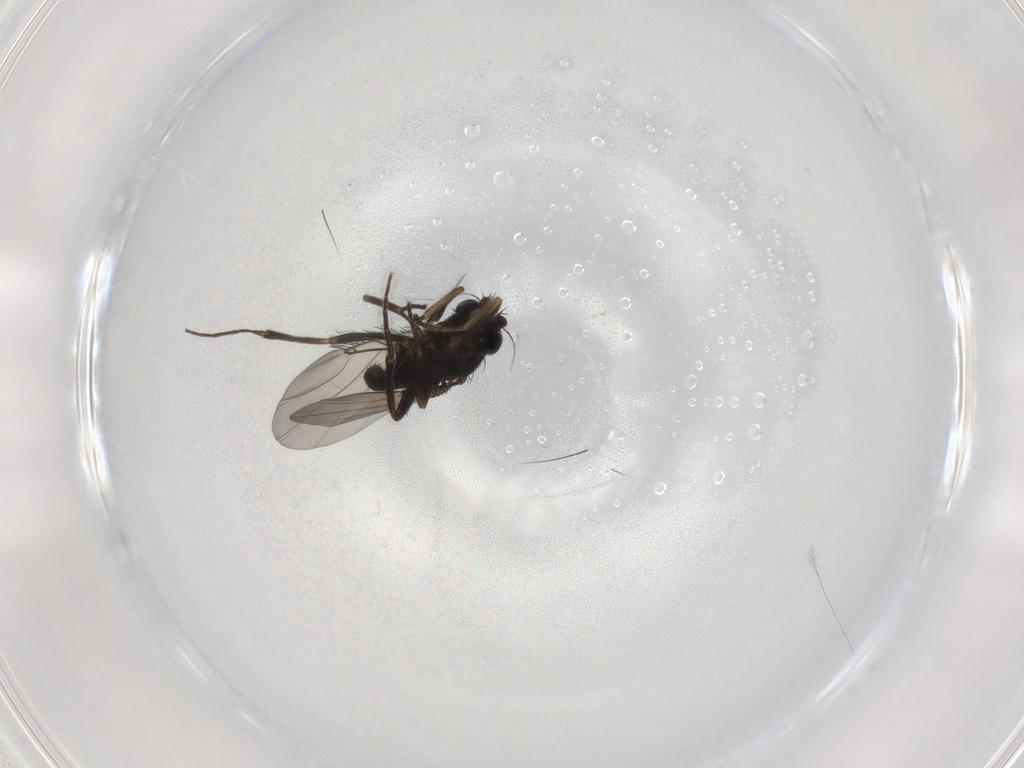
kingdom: Animalia
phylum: Arthropoda
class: Insecta
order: Diptera
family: Phoridae
